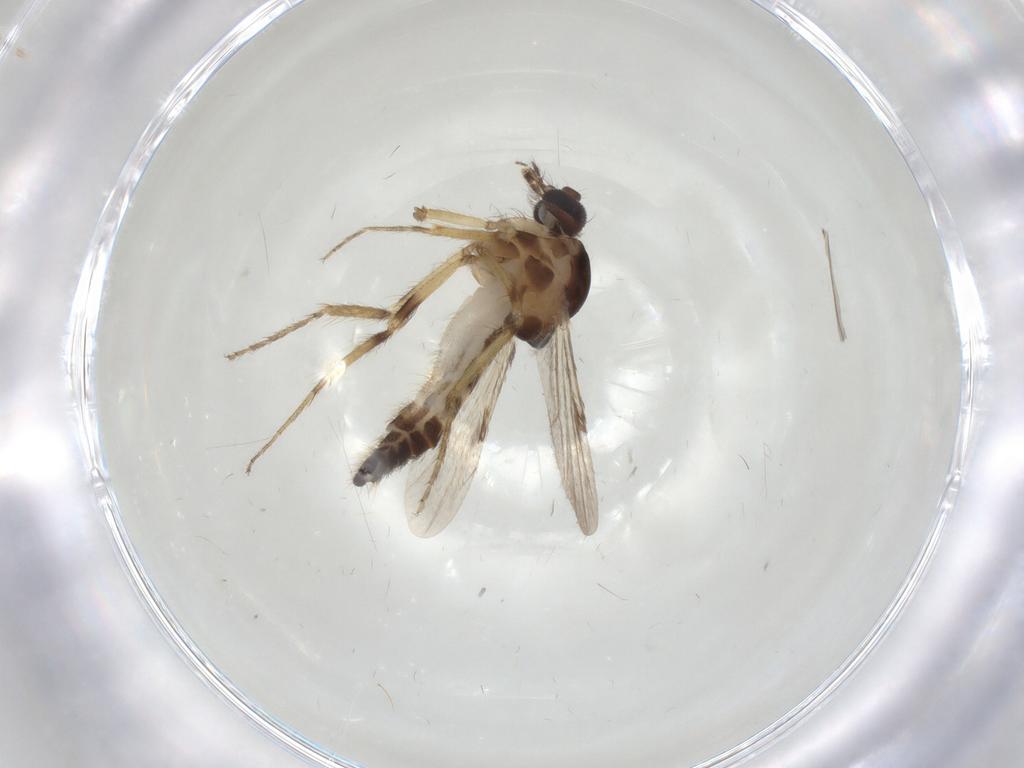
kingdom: Animalia
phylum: Arthropoda
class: Insecta
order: Diptera
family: Ceratopogonidae
